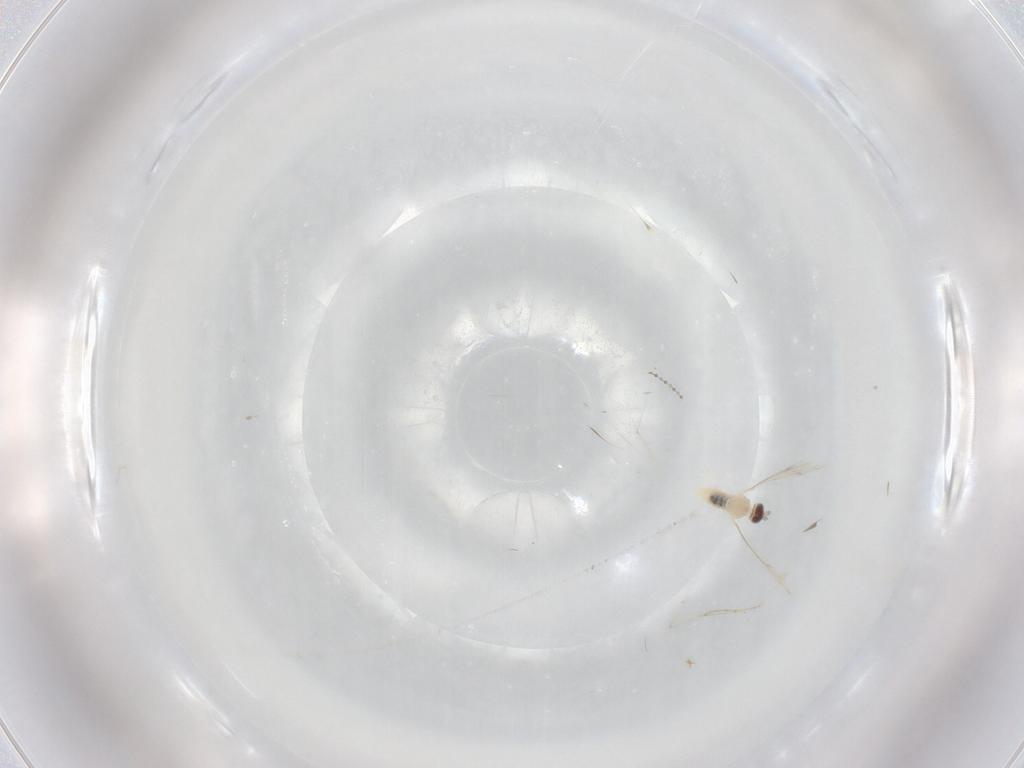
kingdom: Animalia
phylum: Arthropoda
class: Insecta
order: Diptera
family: Cecidomyiidae
